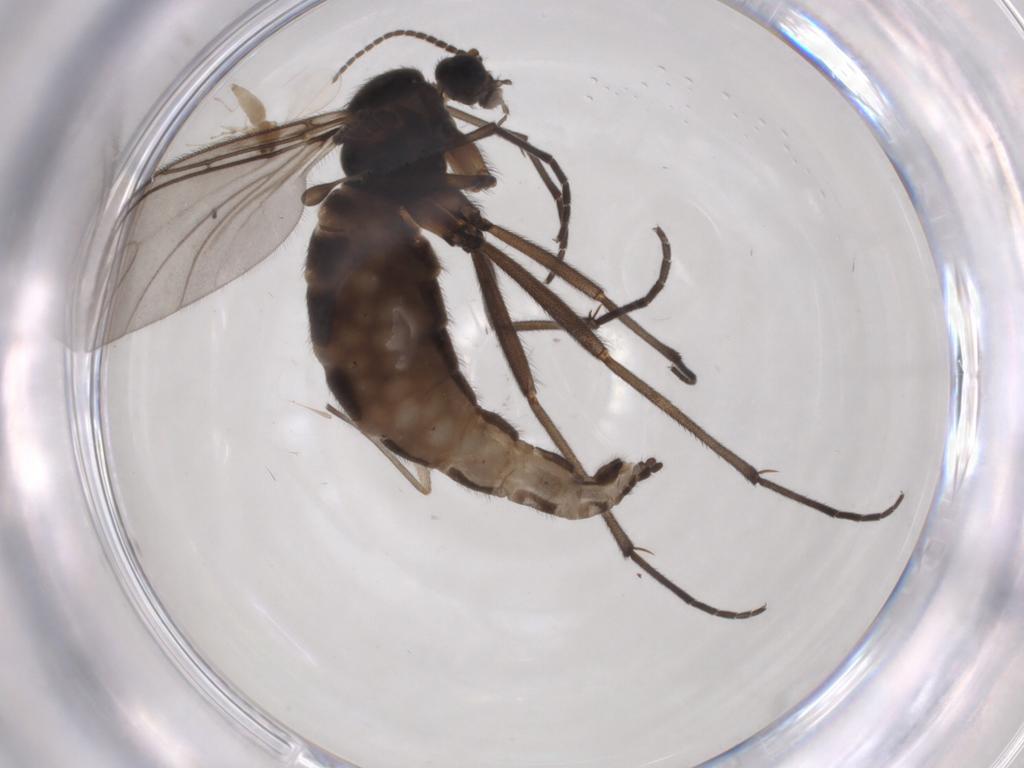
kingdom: Animalia
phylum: Arthropoda
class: Insecta
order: Diptera
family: Sciaridae
